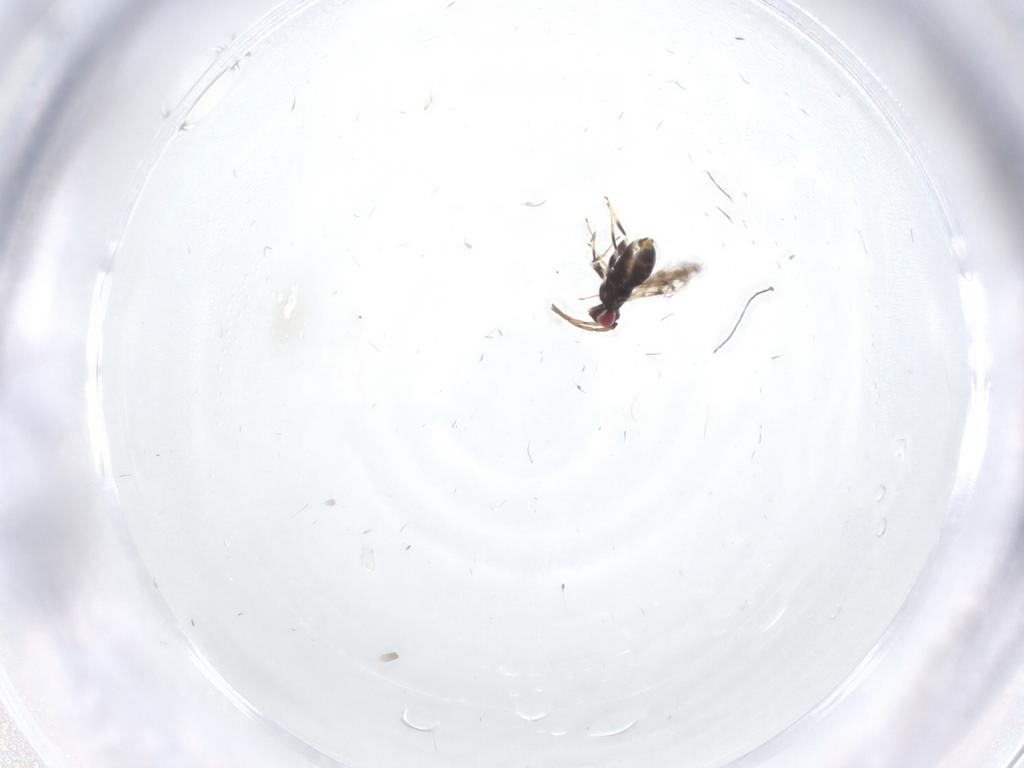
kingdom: Animalia
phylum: Arthropoda
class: Insecta
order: Hymenoptera
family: Azotidae
